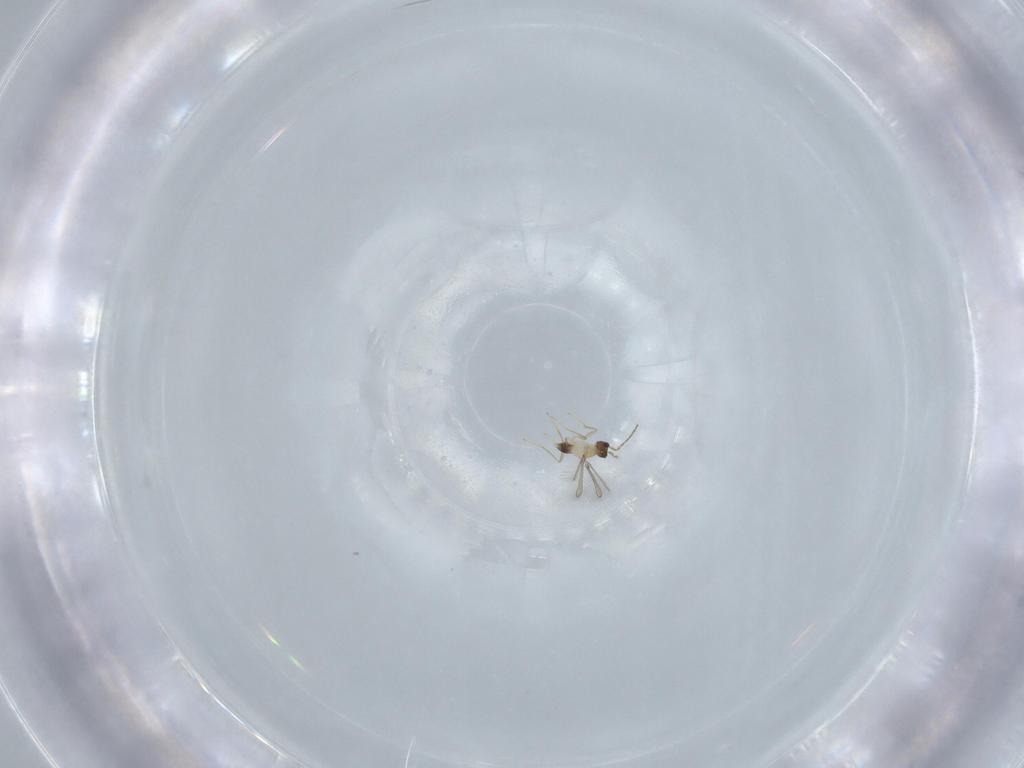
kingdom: Animalia
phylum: Arthropoda
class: Insecta
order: Hymenoptera
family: Mymaridae
